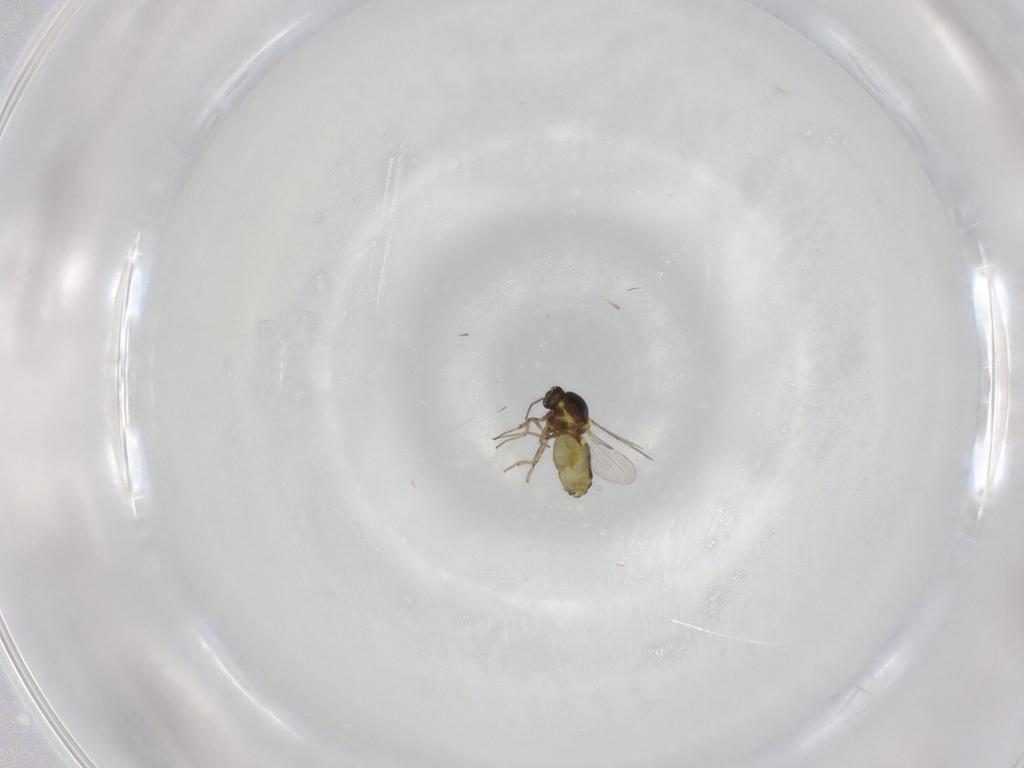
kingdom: Animalia
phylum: Arthropoda
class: Insecta
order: Diptera
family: Ceratopogonidae
